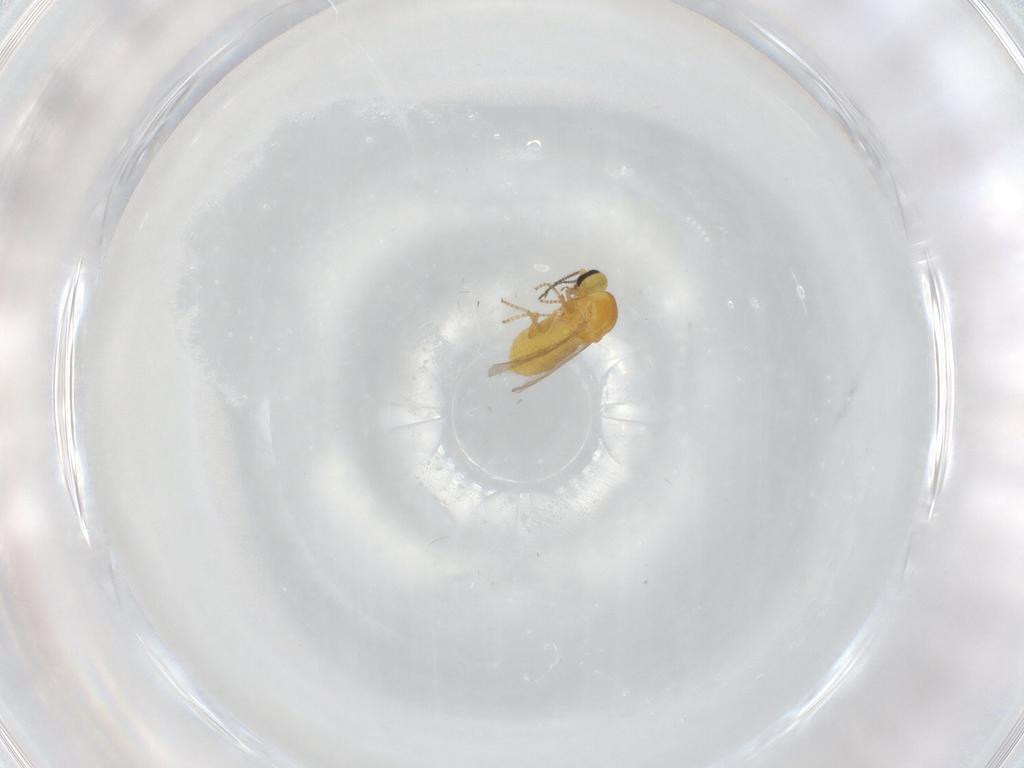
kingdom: Animalia
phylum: Arthropoda
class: Insecta
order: Diptera
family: Ceratopogonidae
